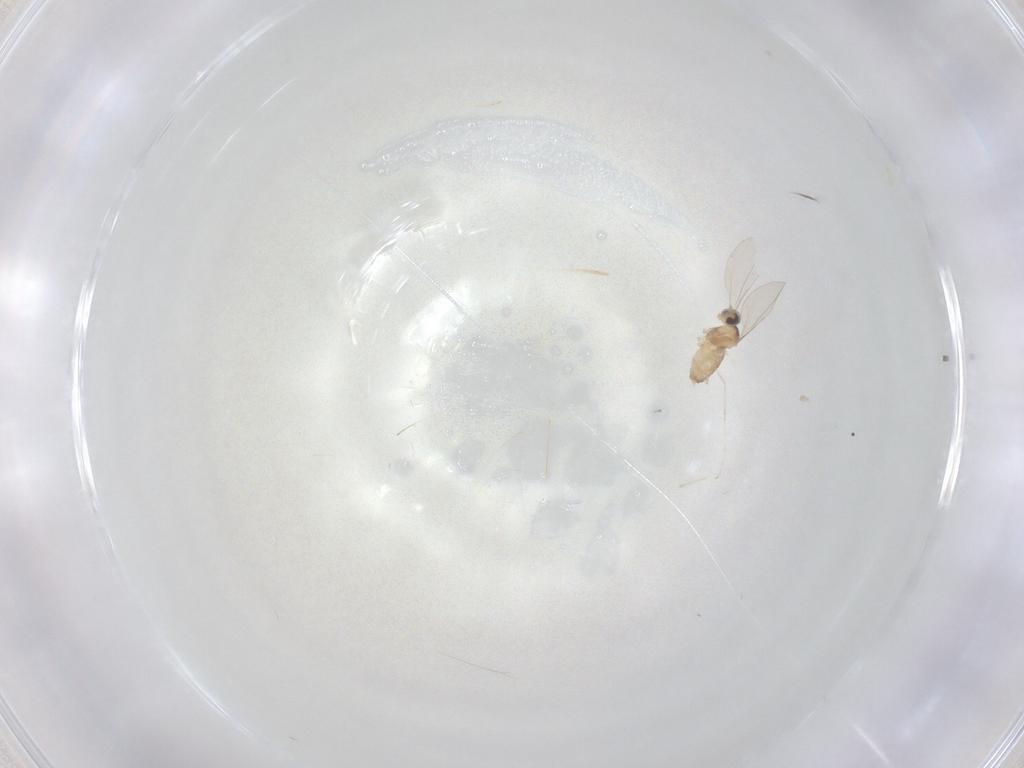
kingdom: Animalia
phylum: Arthropoda
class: Insecta
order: Diptera
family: Cecidomyiidae
